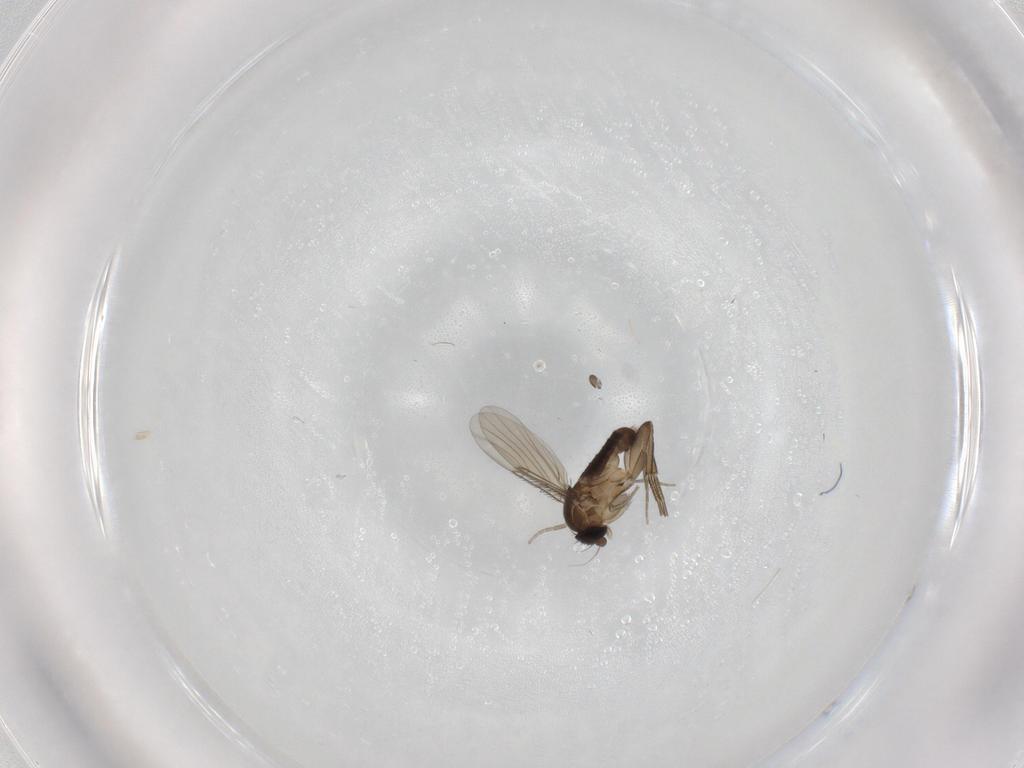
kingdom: Animalia
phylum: Arthropoda
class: Insecta
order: Diptera
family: Phoridae
